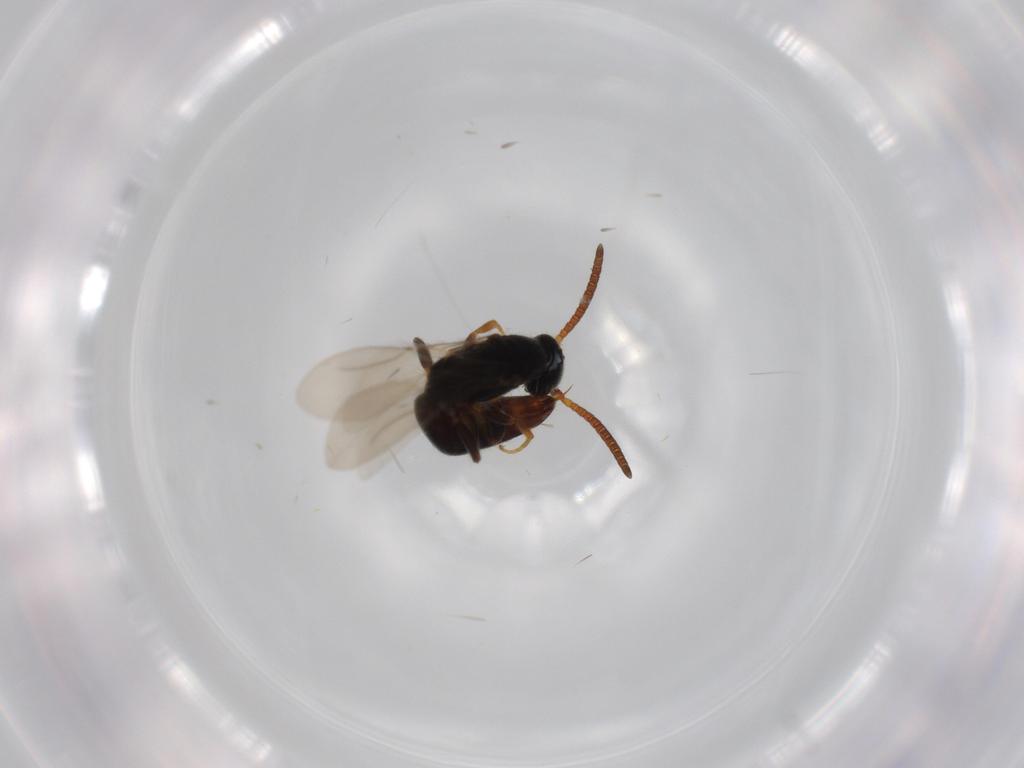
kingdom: Animalia
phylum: Arthropoda
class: Insecta
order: Hymenoptera
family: Bethylidae
